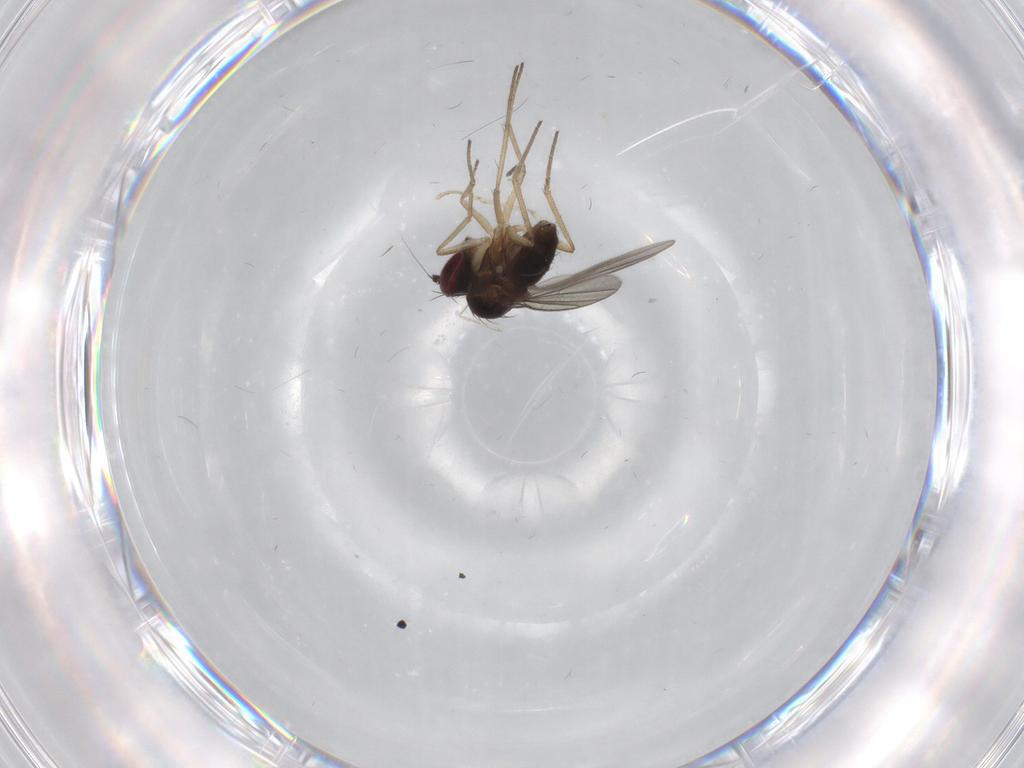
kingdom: Animalia
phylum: Arthropoda
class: Insecta
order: Diptera
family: Dolichopodidae
